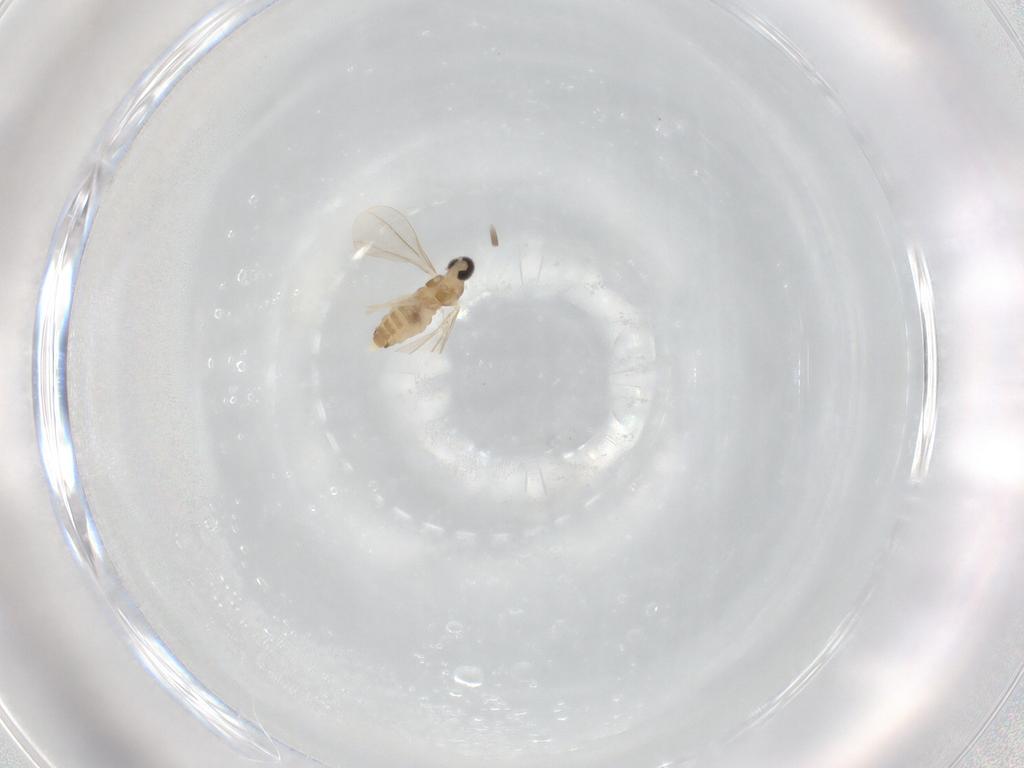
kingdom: Animalia
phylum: Arthropoda
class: Insecta
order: Diptera
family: Cecidomyiidae
